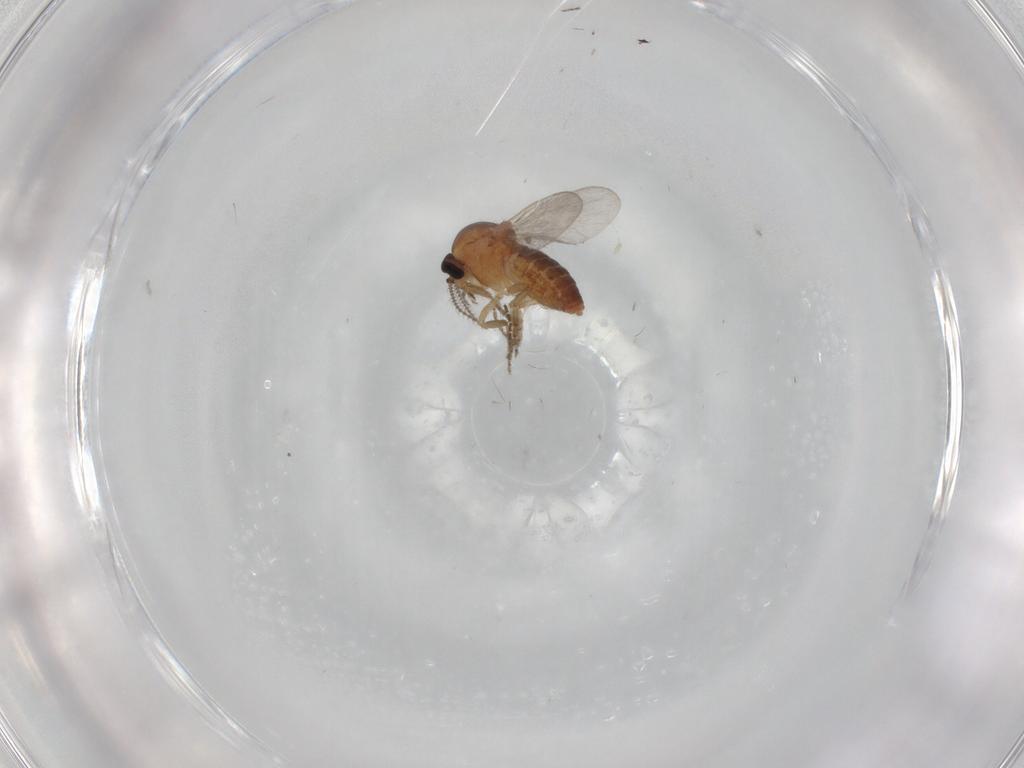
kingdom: Animalia
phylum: Arthropoda
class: Insecta
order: Diptera
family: Ceratopogonidae
